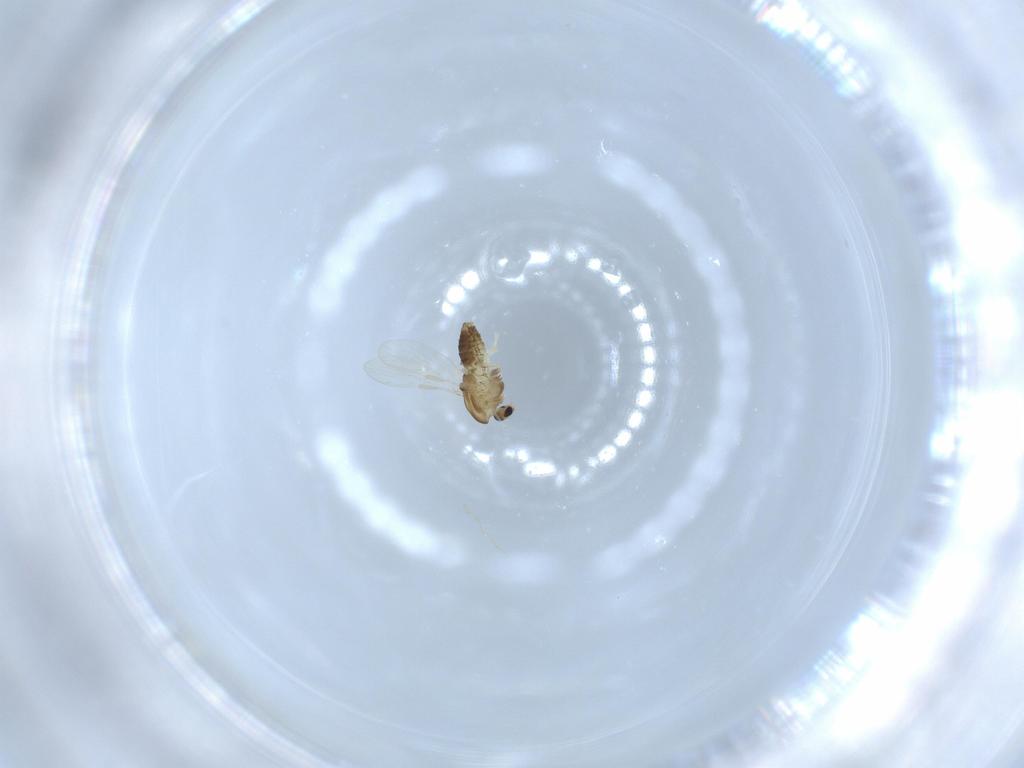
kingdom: Animalia
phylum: Arthropoda
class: Insecta
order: Diptera
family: Chironomidae
